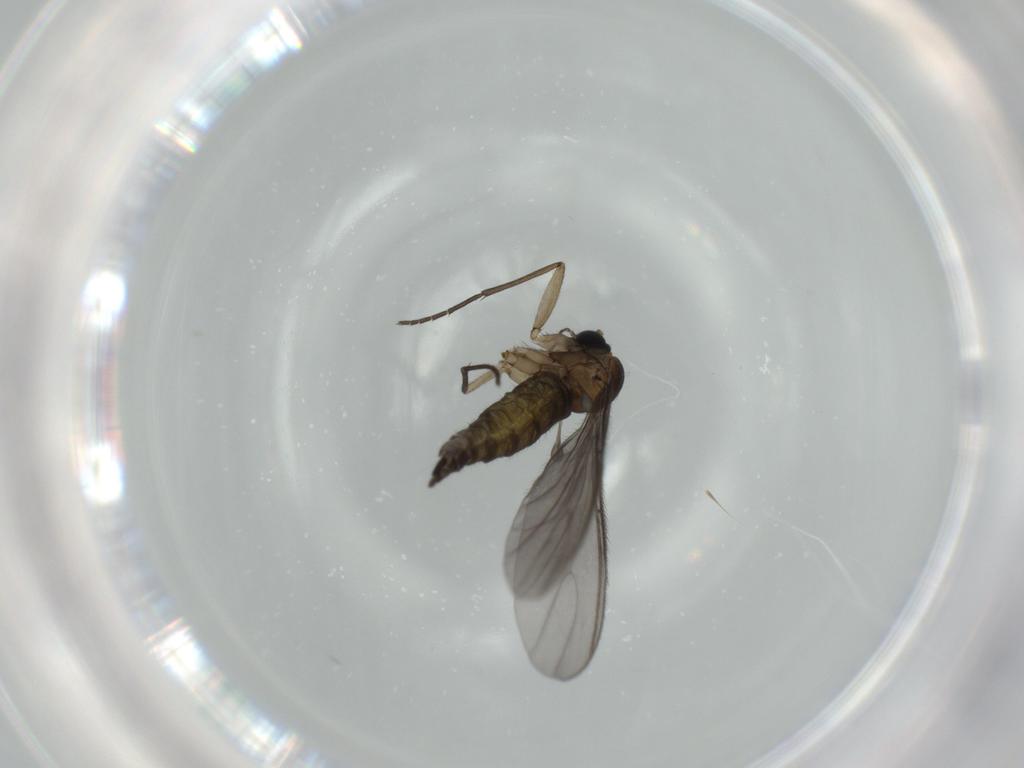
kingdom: Animalia
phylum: Arthropoda
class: Insecta
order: Diptera
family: Sciaridae
